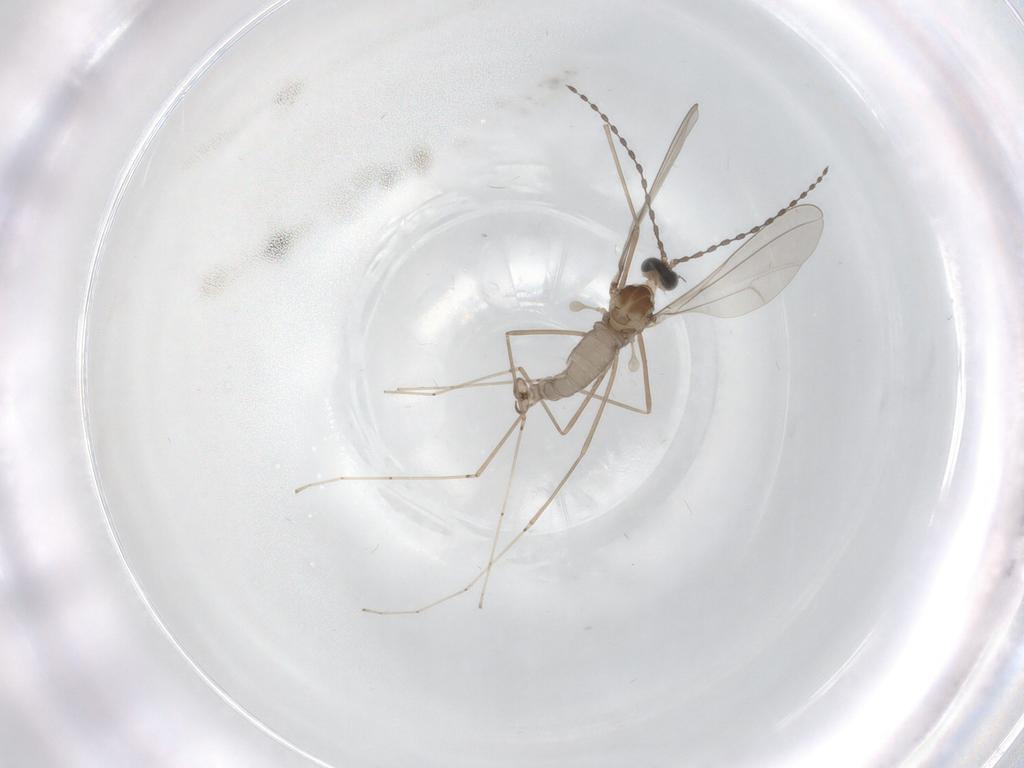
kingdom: Animalia
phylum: Arthropoda
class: Insecta
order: Diptera
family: Cecidomyiidae
